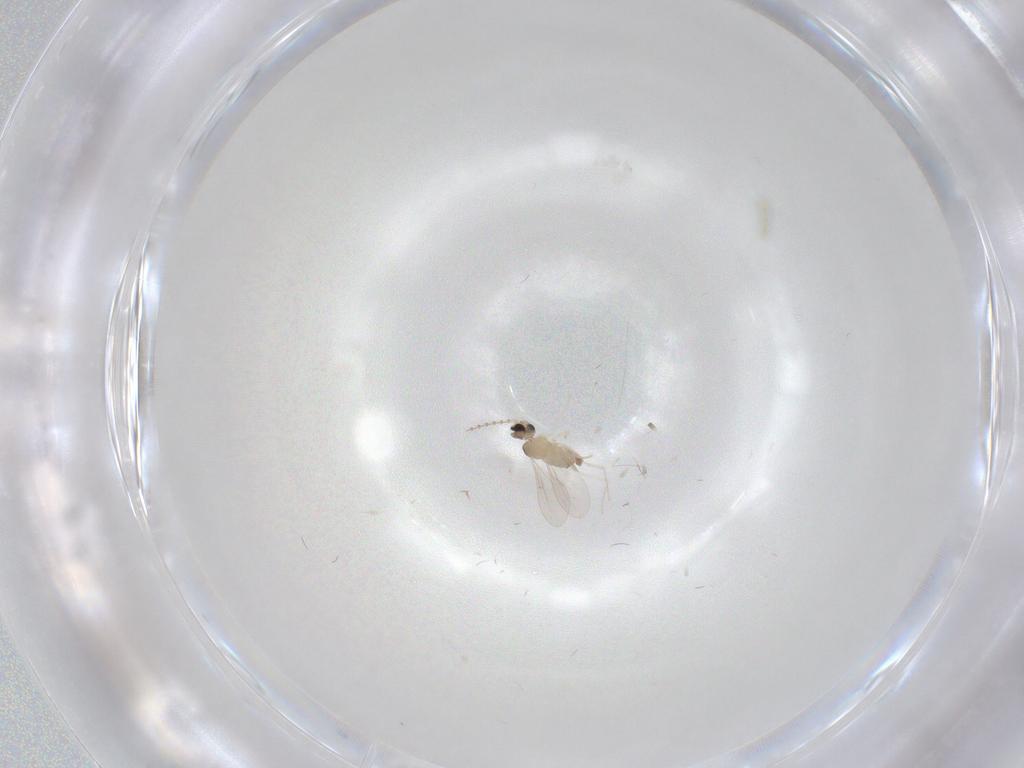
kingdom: Animalia
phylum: Arthropoda
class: Insecta
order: Diptera
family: Cecidomyiidae
